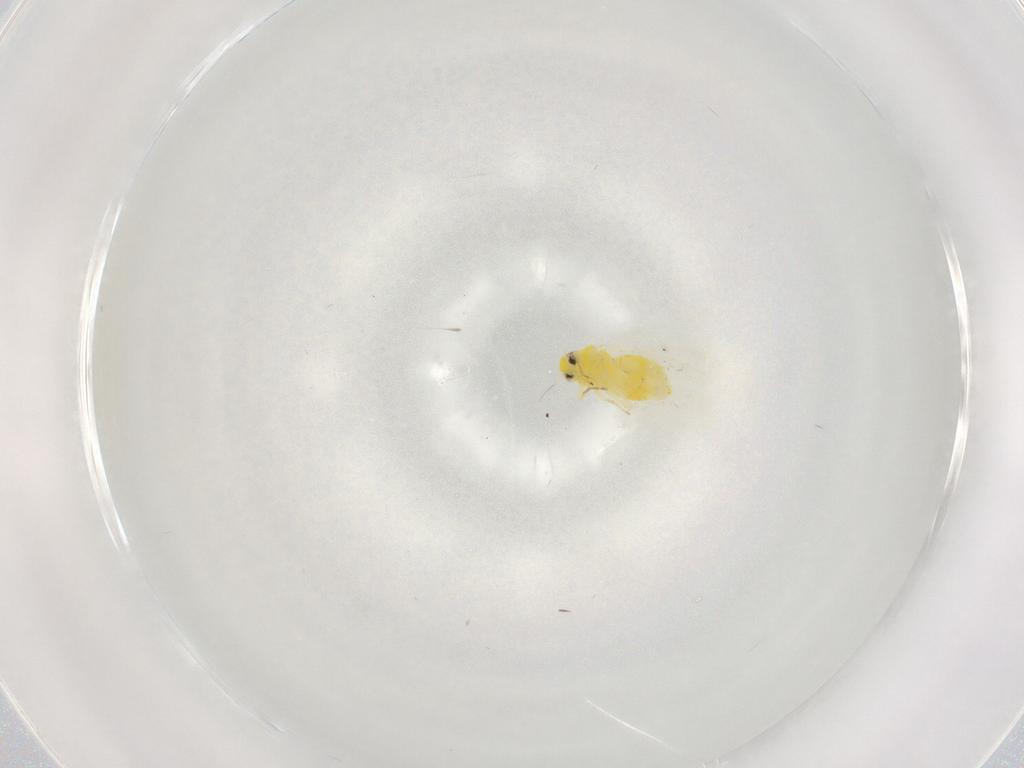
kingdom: Animalia
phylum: Arthropoda
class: Insecta
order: Hemiptera
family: Aleyrodidae
